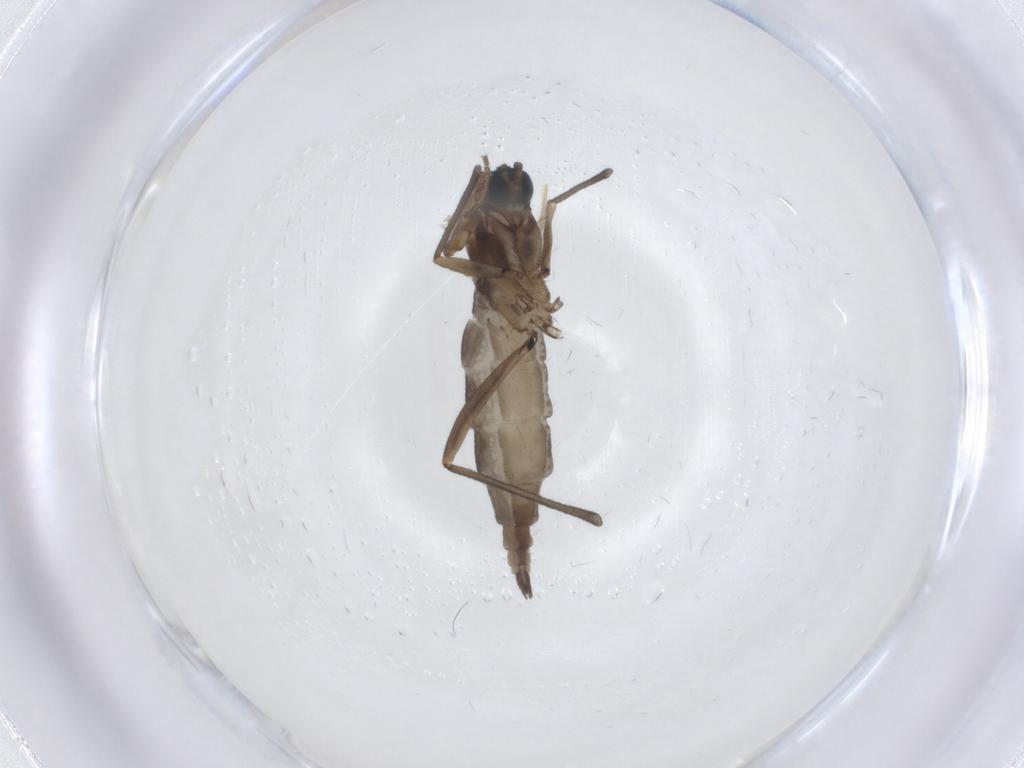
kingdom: Animalia
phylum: Arthropoda
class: Insecta
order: Diptera
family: Sciaridae
